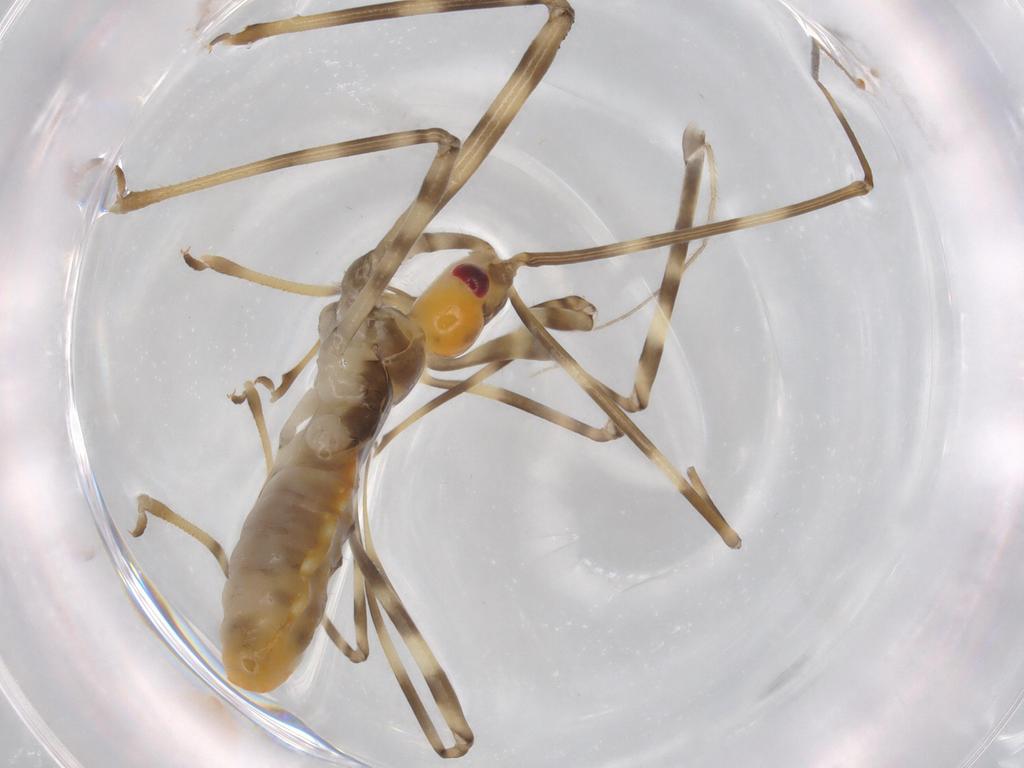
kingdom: Animalia
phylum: Arthropoda
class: Insecta
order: Hemiptera
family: Reduviidae
